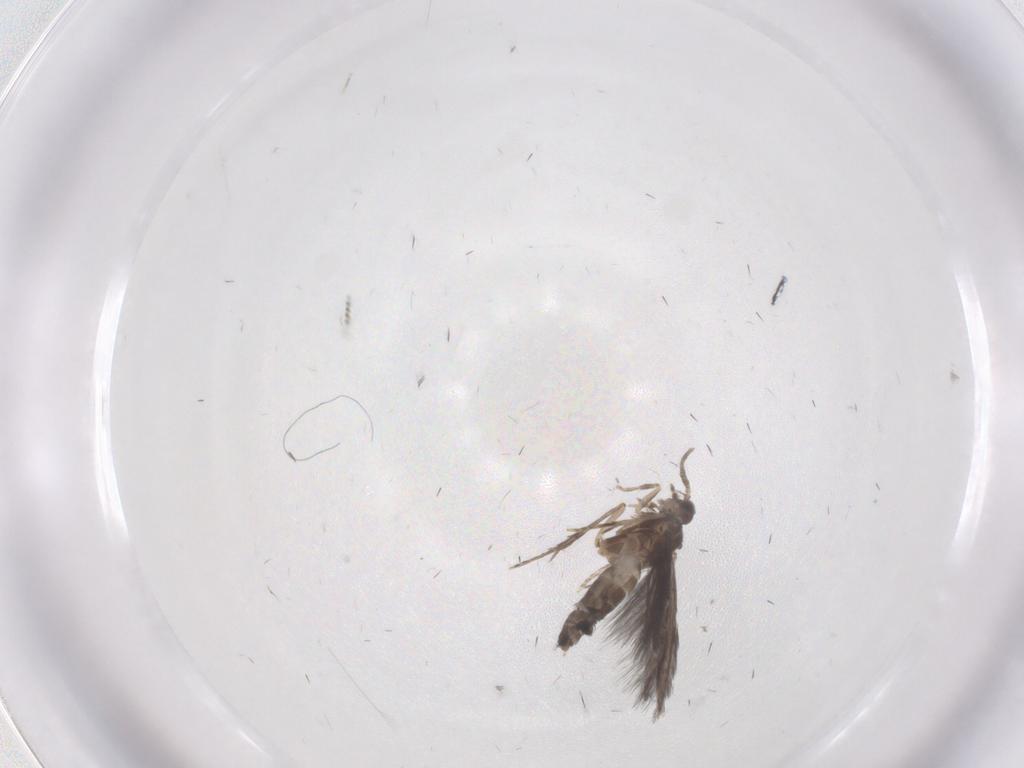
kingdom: Animalia
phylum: Arthropoda
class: Insecta
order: Trichoptera
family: Hydroptilidae
